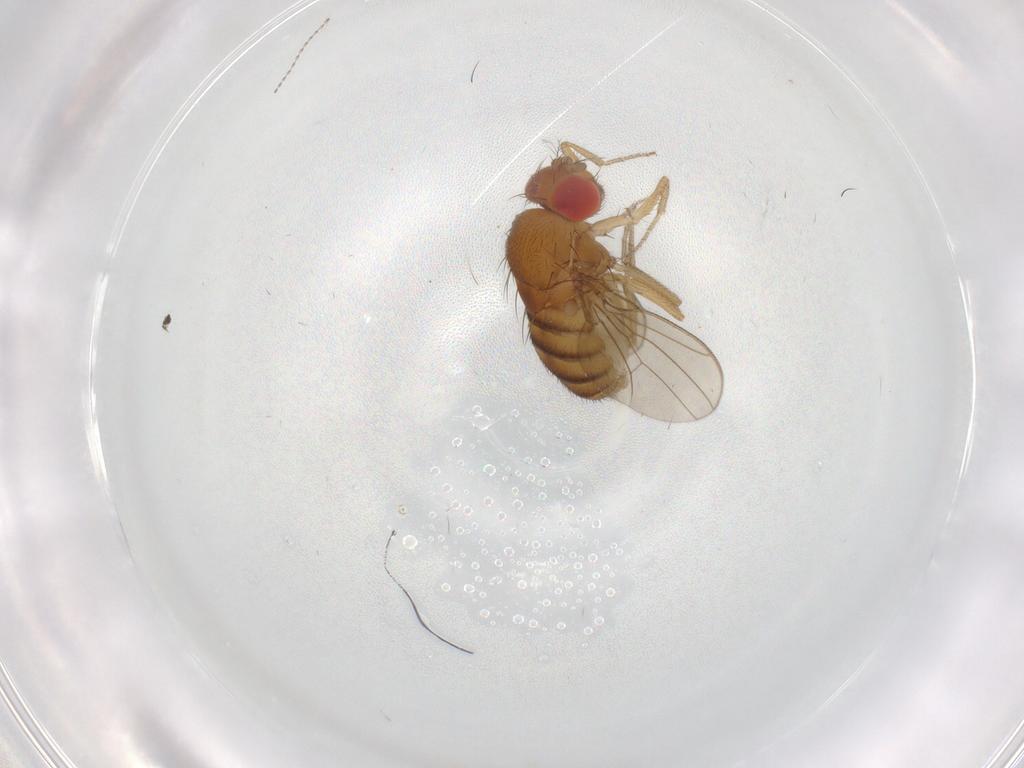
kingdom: Animalia
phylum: Arthropoda
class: Insecta
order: Diptera
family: Drosophilidae
